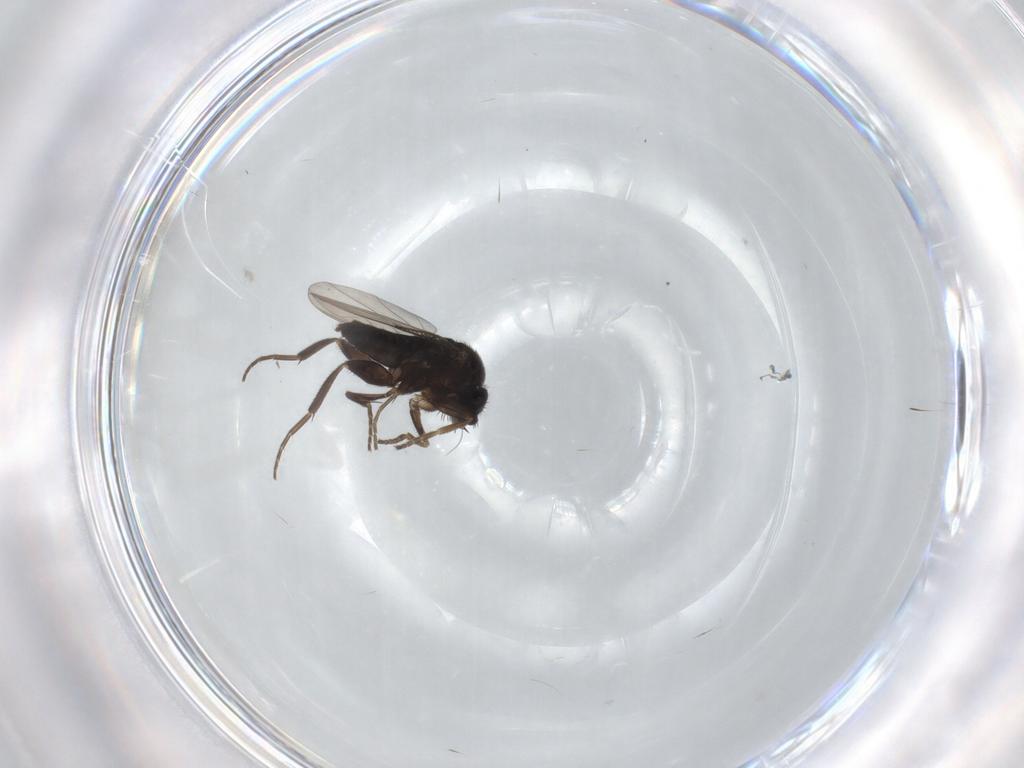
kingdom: Animalia
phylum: Arthropoda
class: Insecta
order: Diptera
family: Phoridae
